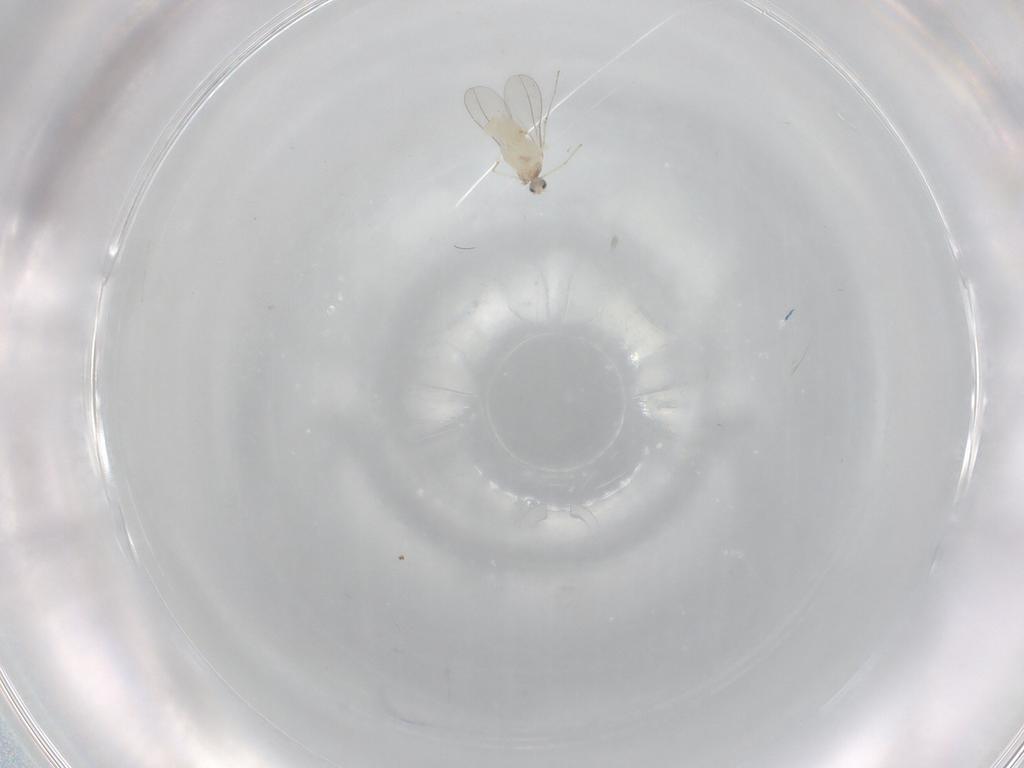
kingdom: Animalia
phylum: Arthropoda
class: Insecta
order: Diptera
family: Cecidomyiidae
